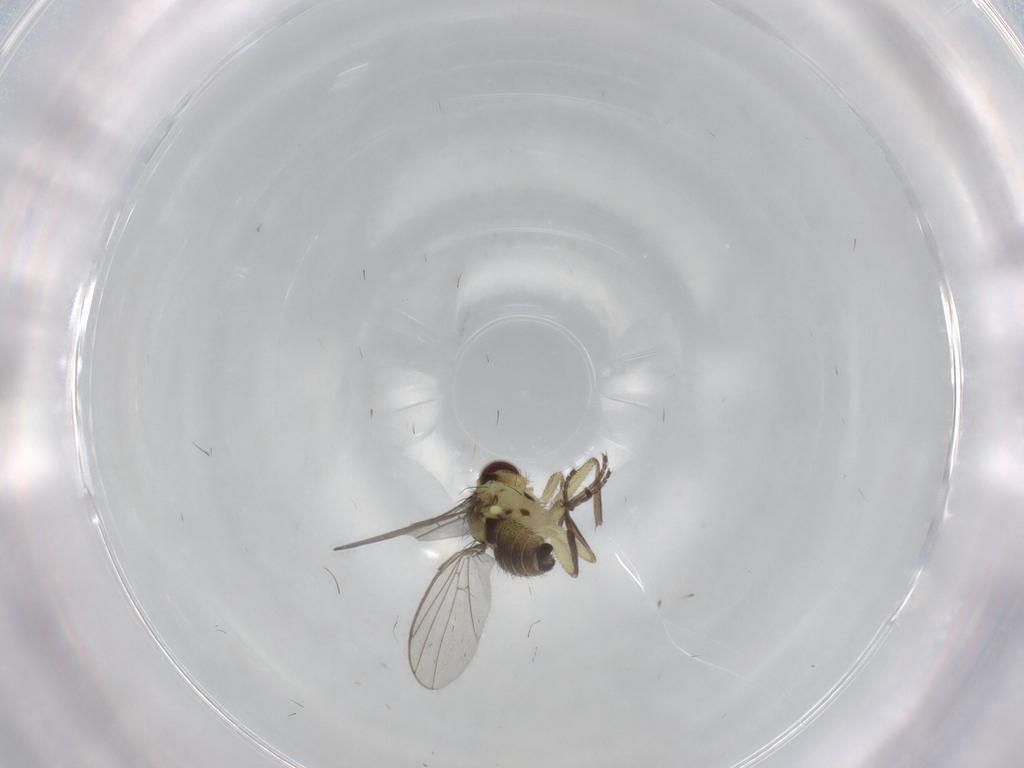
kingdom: Animalia
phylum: Arthropoda
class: Insecta
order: Diptera
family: Agromyzidae
